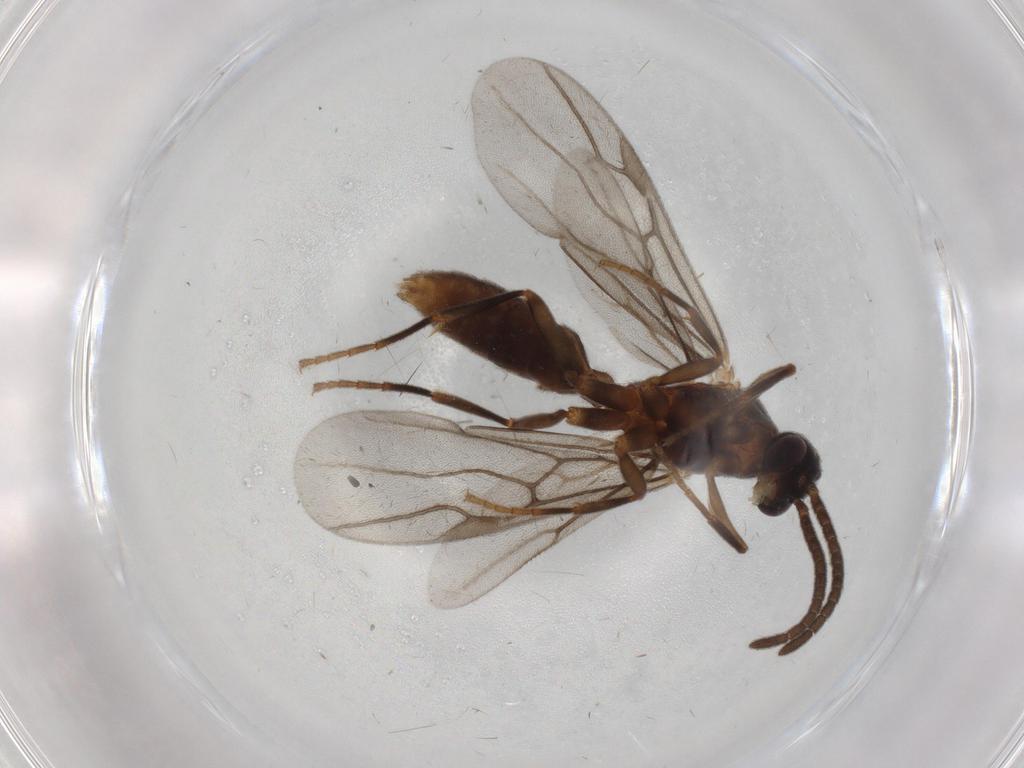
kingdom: Animalia
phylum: Arthropoda
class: Insecta
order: Hymenoptera
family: Formicidae
